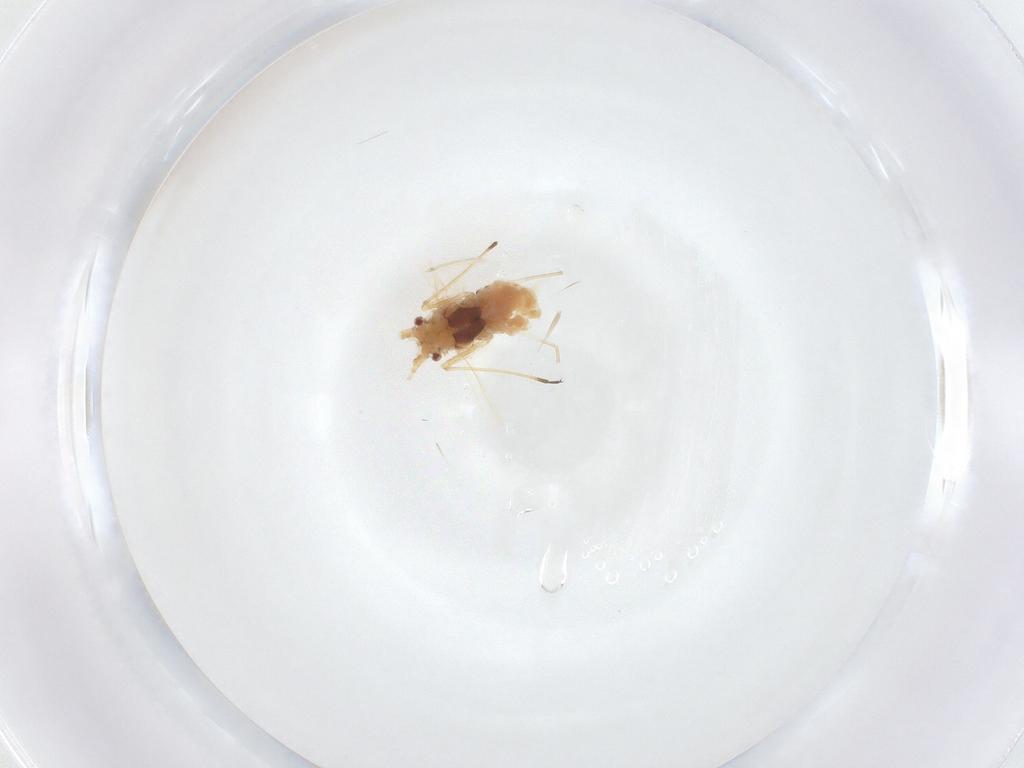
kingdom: Animalia
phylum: Arthropoda
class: Insecta
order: Hemiptera
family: Aphididae
